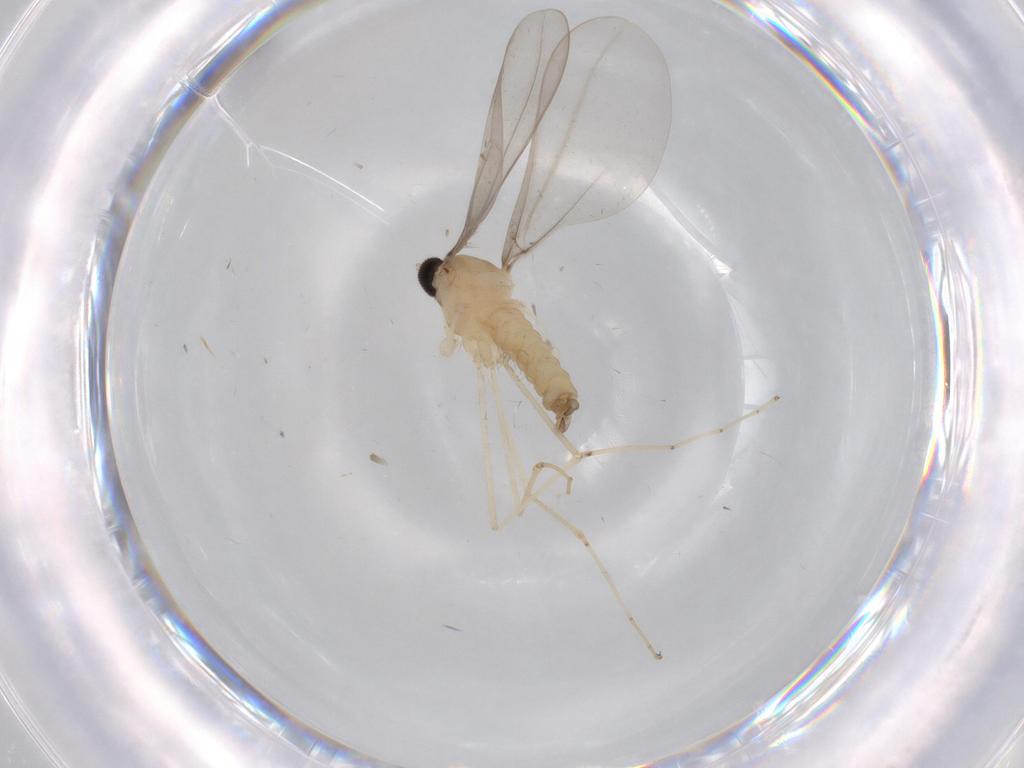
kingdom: Animalia
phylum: Arthropoda
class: Insecta
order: Diptera
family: Cecidomyiidae
